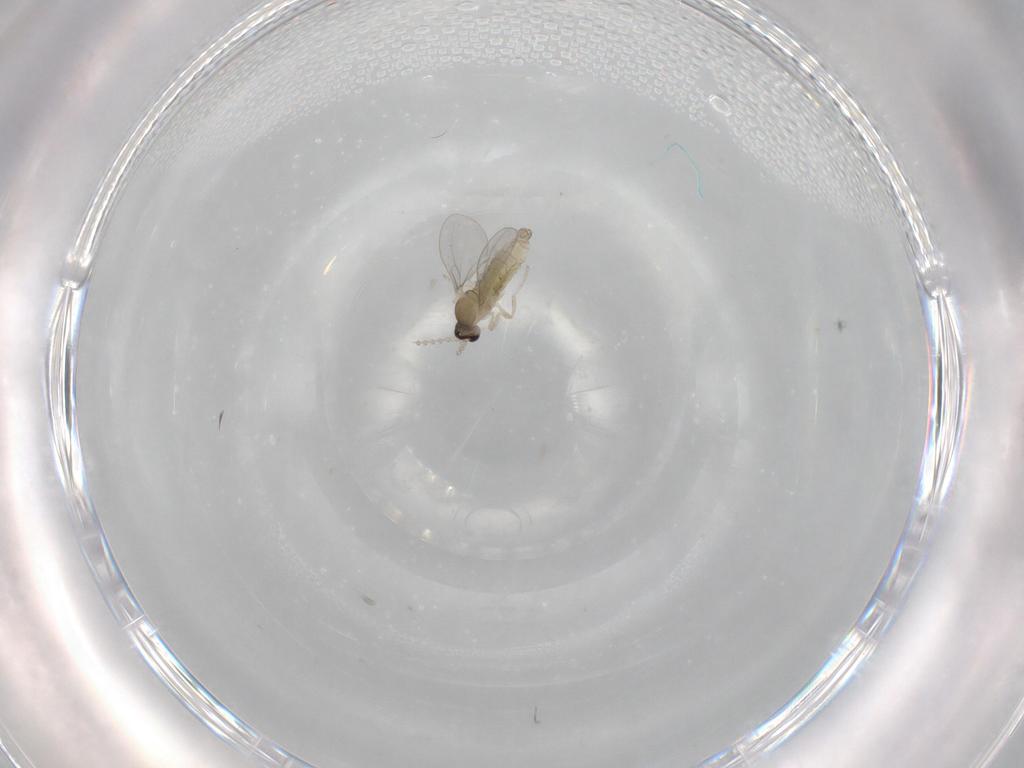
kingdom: Animalia
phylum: Arthropoda
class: Insecta
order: Diptera
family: Cecidomyiidae
